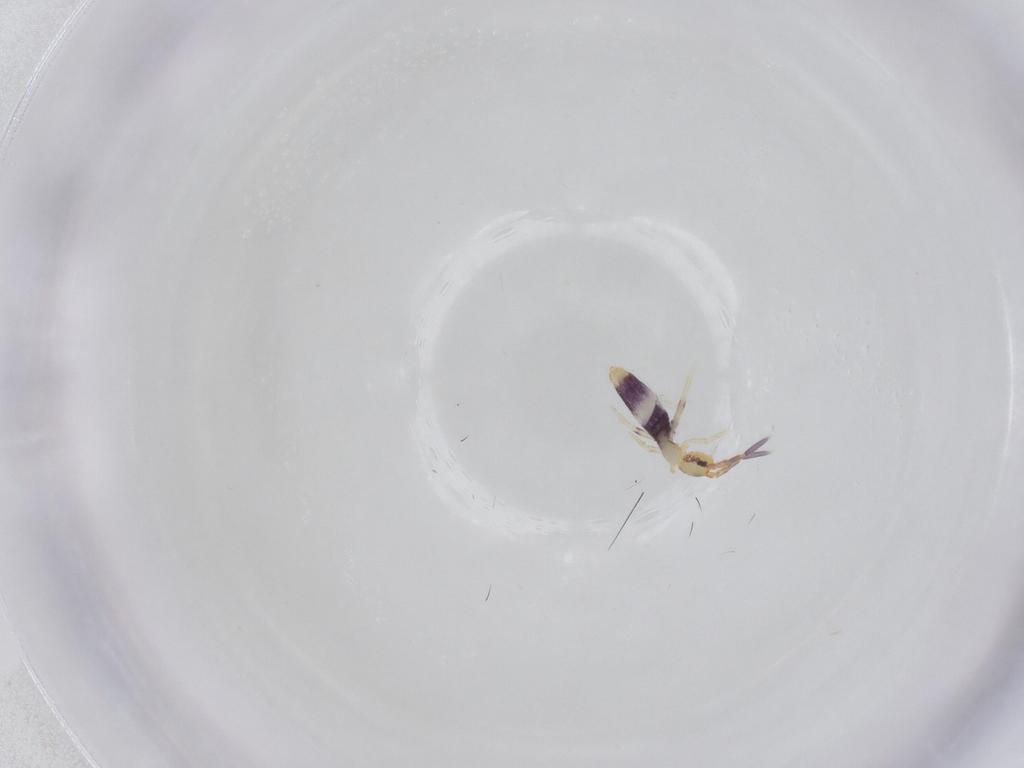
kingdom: Animalia
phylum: Arthropoda
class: Collembola
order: Entomobryomorpha
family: Entomobryidae
